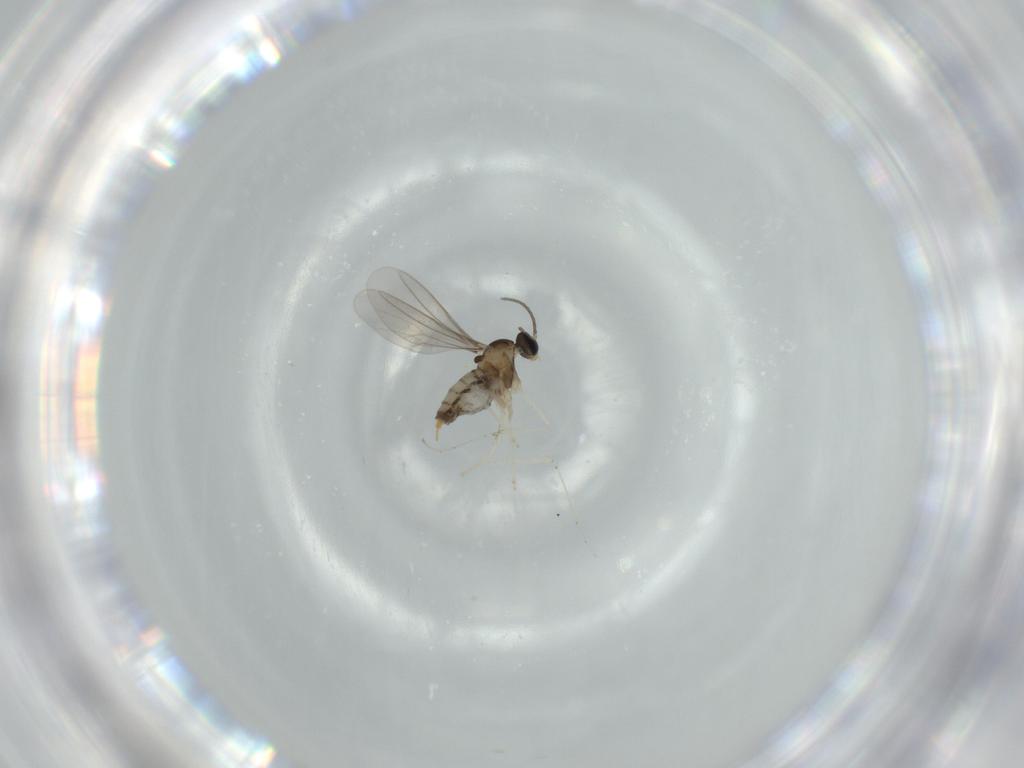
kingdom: Animalia
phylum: Arthropoda
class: Insecta
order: Diptera
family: Cecidomyiidae
